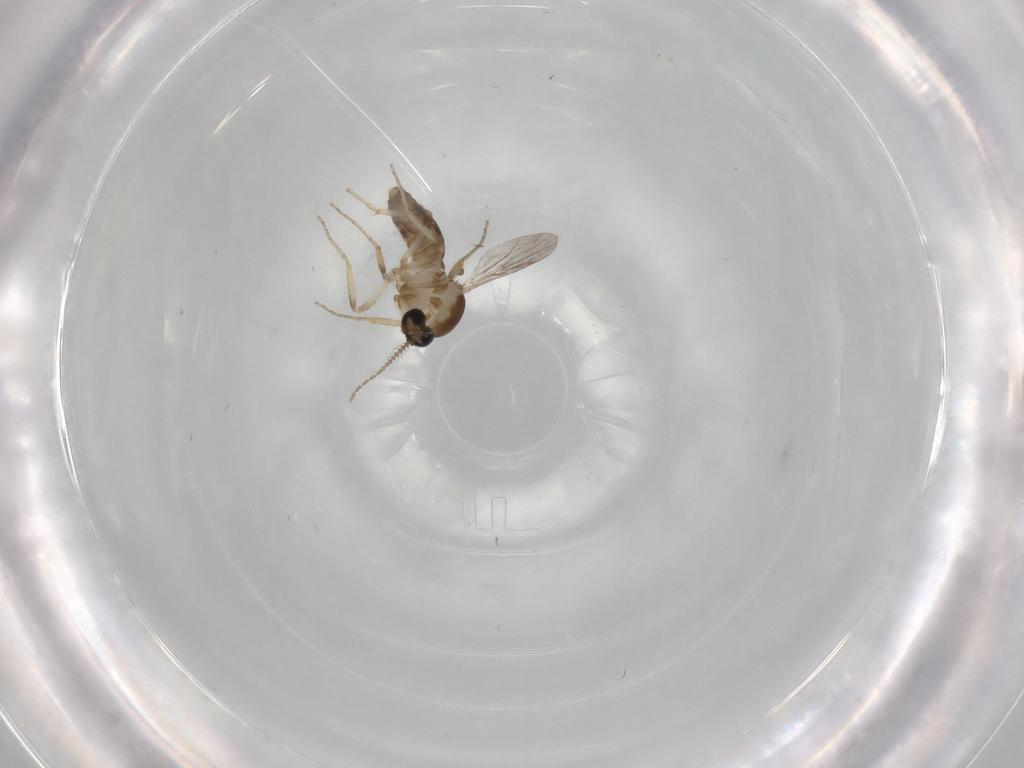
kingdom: Animalia
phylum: Arthropoda
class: Insecta
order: Diptera
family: Ceratopogonidae
